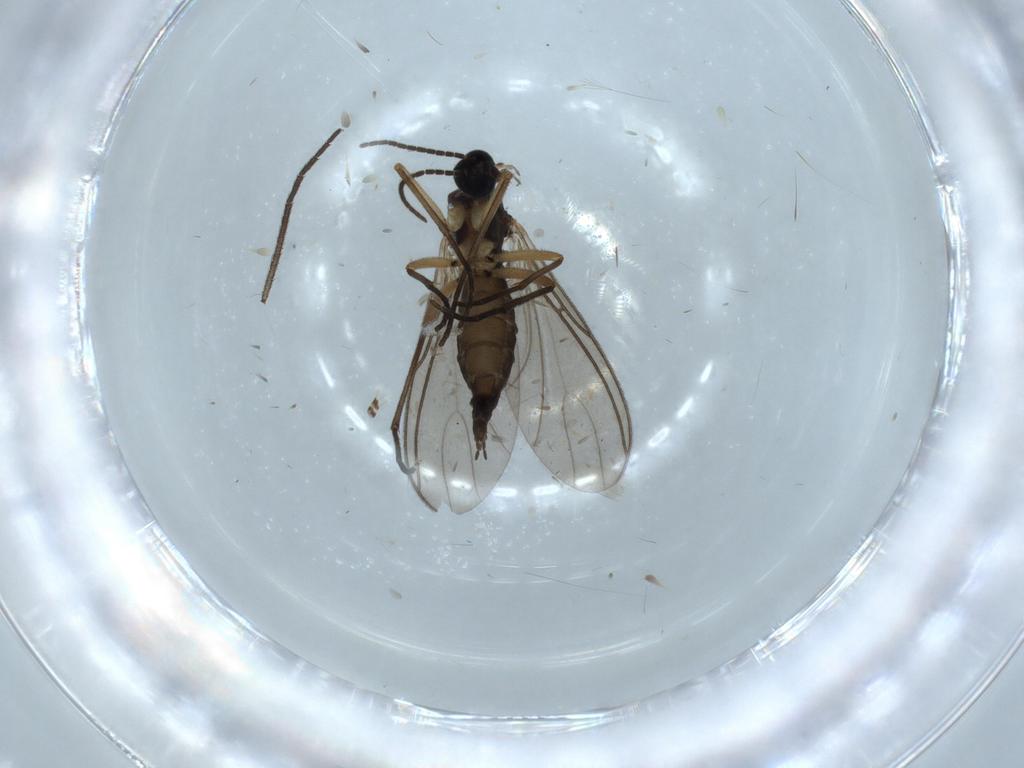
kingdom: Animalia
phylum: Arthropoda
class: Insecta
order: Diptera
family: Sciaridae
